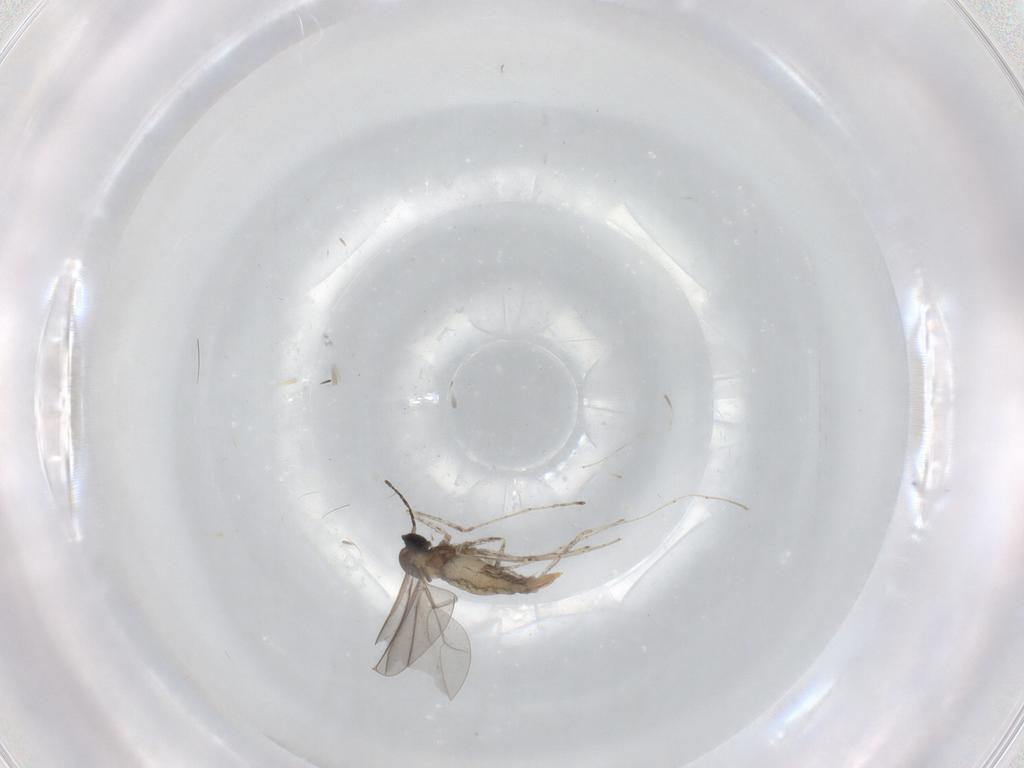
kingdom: Animalia
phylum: Arthropoda
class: Insecta
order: Diptera
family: Cecidomyiidae
